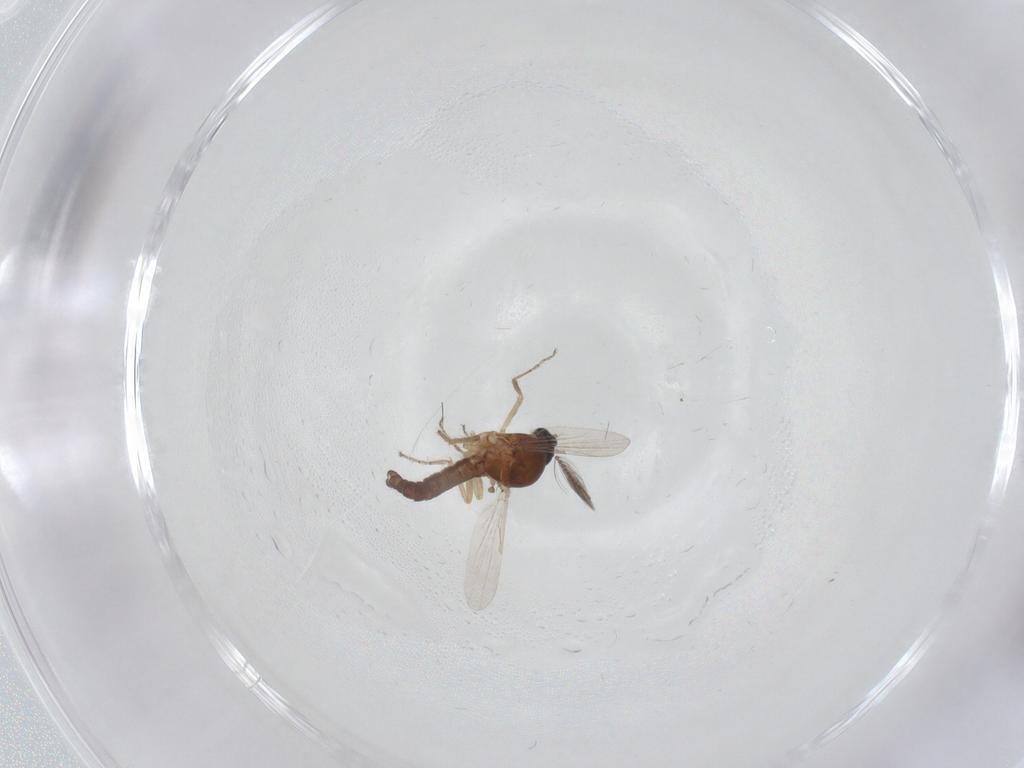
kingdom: Animalia
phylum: Arthropoda
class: Insecta
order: Diptera
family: Ceratopogonidae
